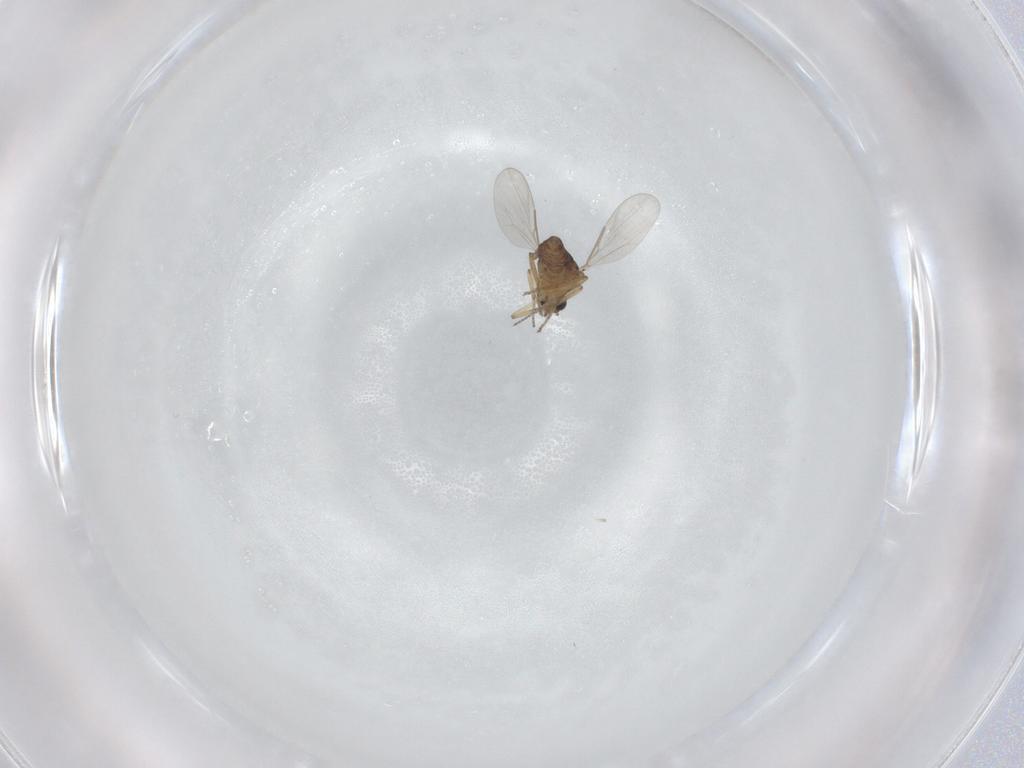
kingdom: Animalia
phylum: Arthropoda
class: Insecta
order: Diptera
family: Ceratopogonidae
